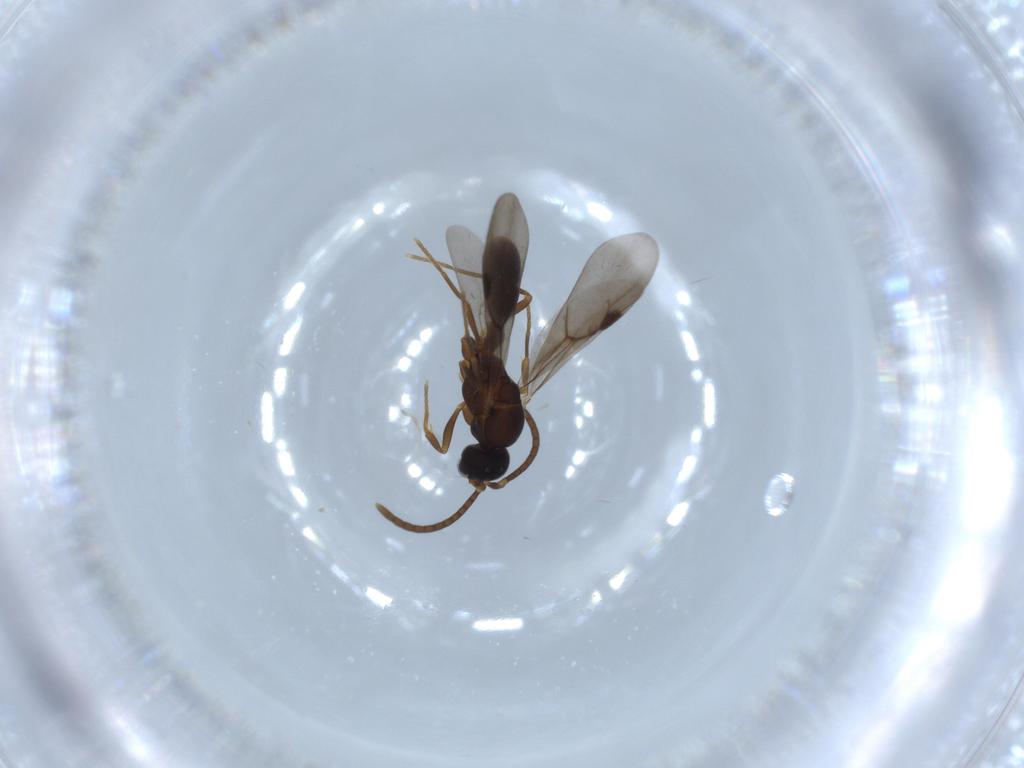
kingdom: Animalia
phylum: Arthropoda
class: Insecta
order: Hymenoptera
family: Formicidae
